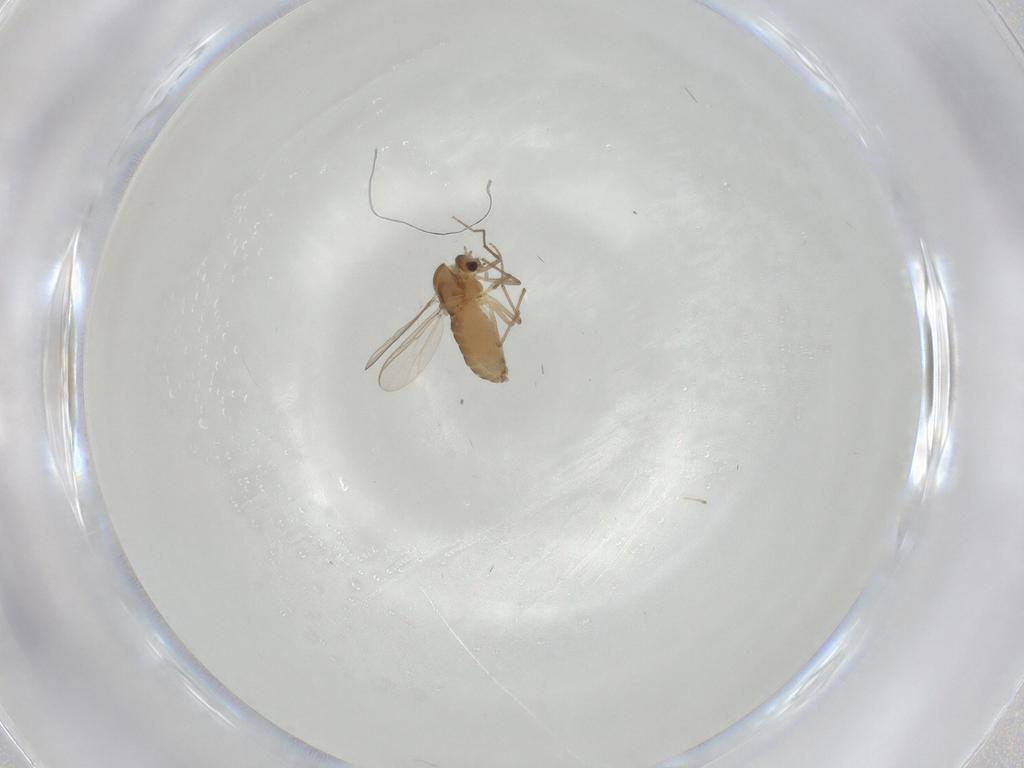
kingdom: Animalia
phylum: Arthropoda
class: Insecta
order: Diptera
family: Chironomidae
